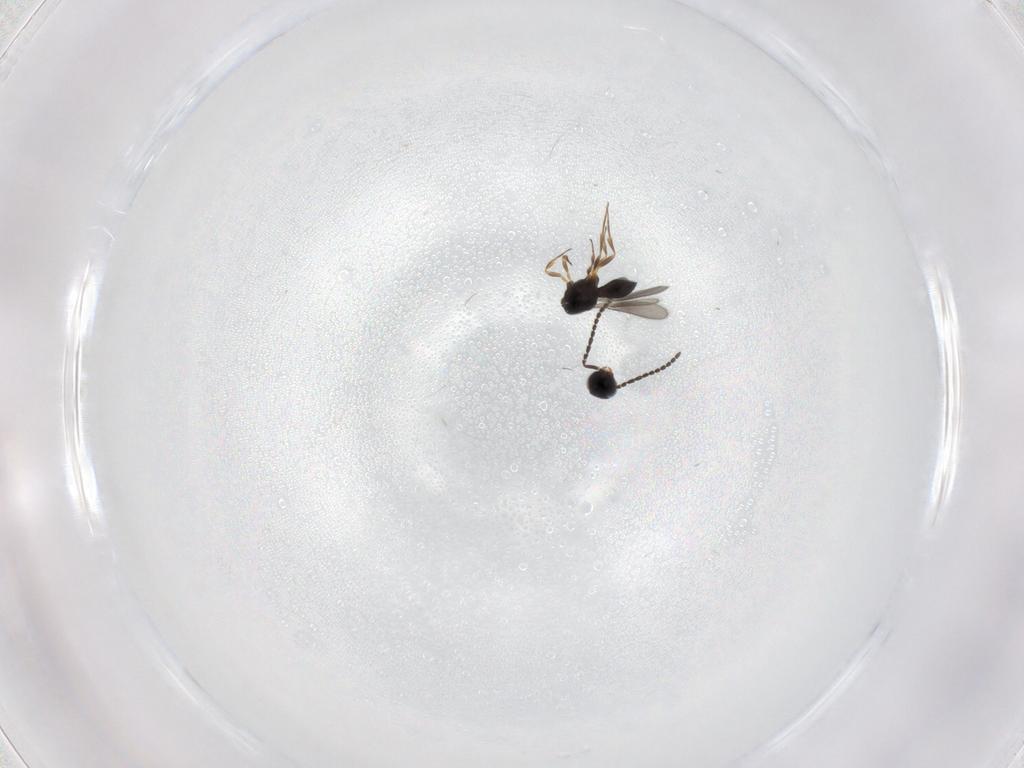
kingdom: Animalia
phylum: Arthropoda
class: Insecta
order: Hymenoptera
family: Scelionidae
